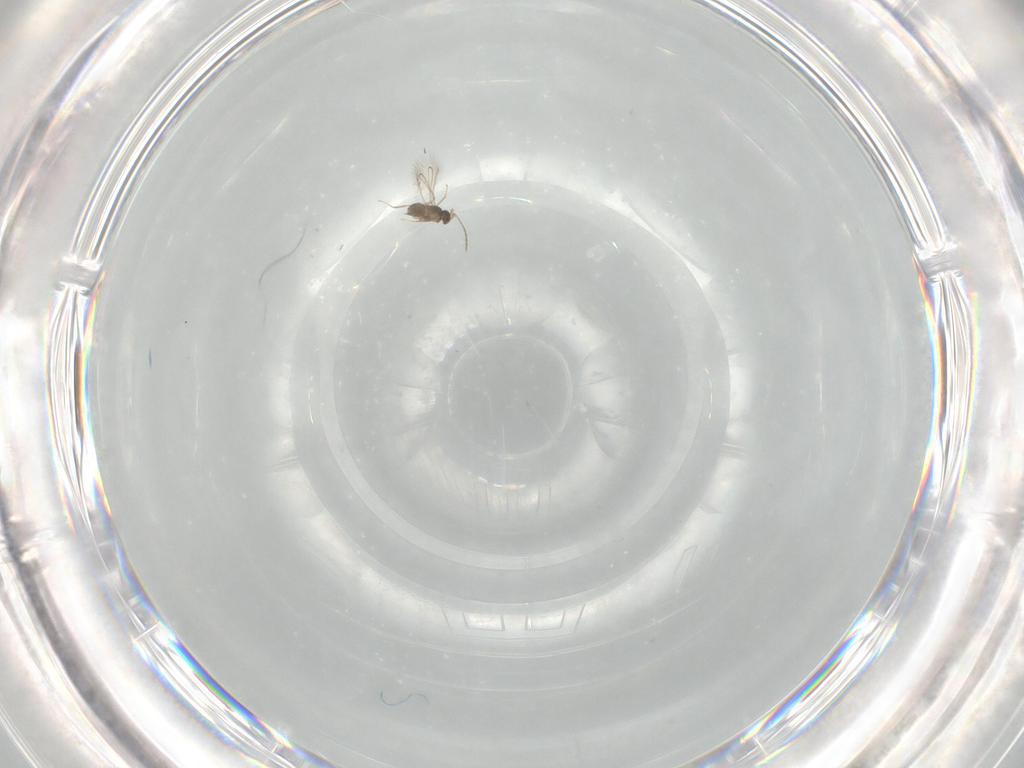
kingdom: Animalia
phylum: Arthropoda
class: Insecta
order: Hymenoptera
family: Mymaridae
